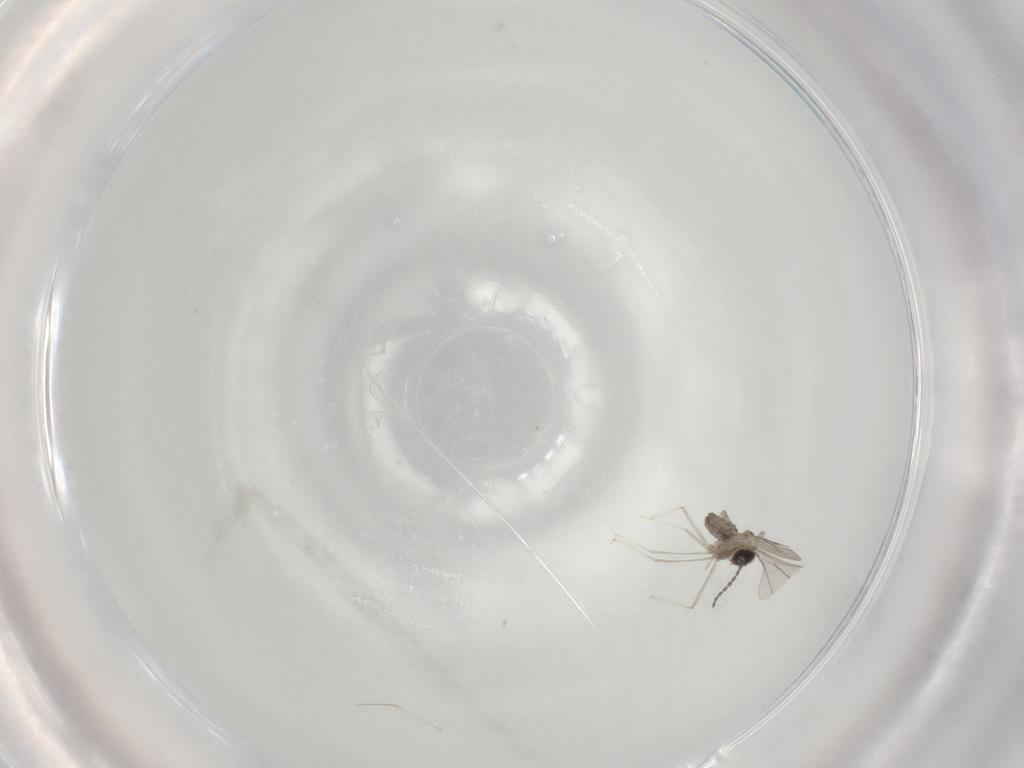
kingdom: Animalia
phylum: Arthropoda
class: Insecta
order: Diptera
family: Cecidomyiidae
